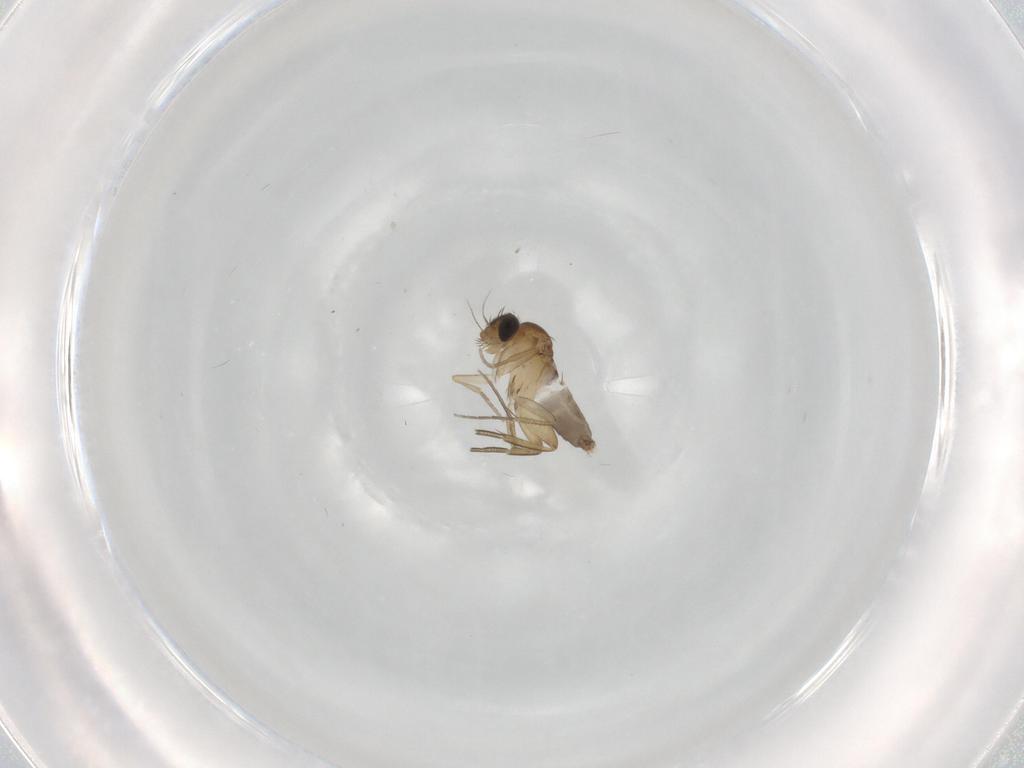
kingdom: Animalia
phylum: Arthropoda
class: Insecta
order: Diptera
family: Phoridae
